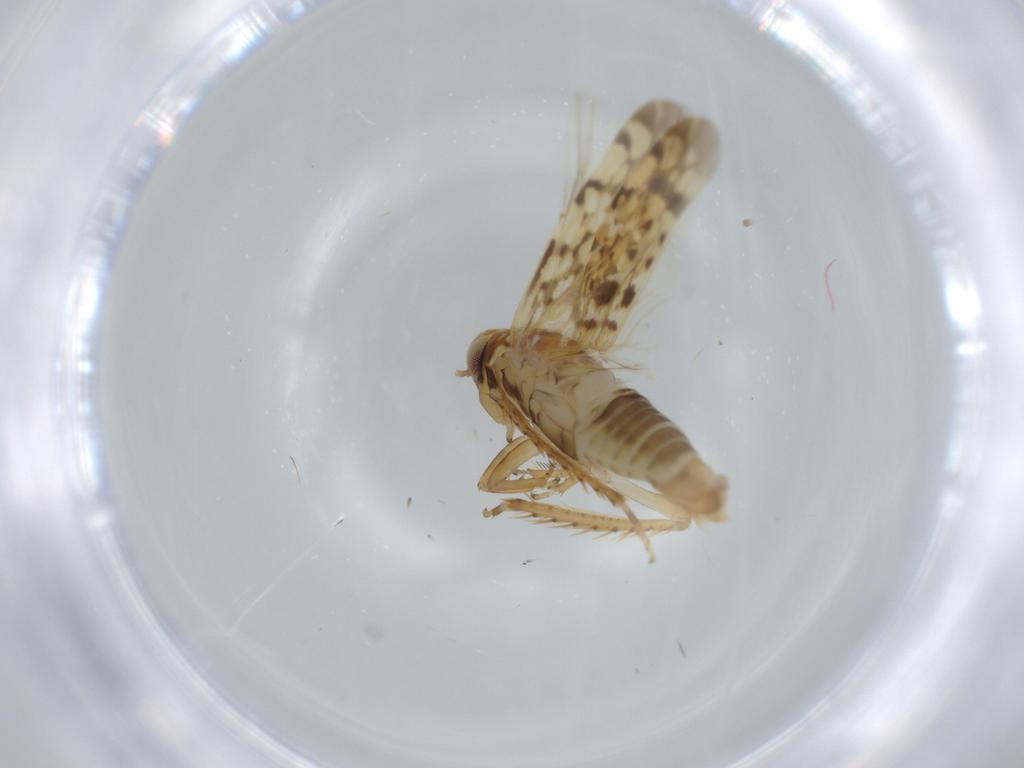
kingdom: Animalia
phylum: Arthropoda
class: Insecta
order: Hemiptera
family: Cicadellidae
